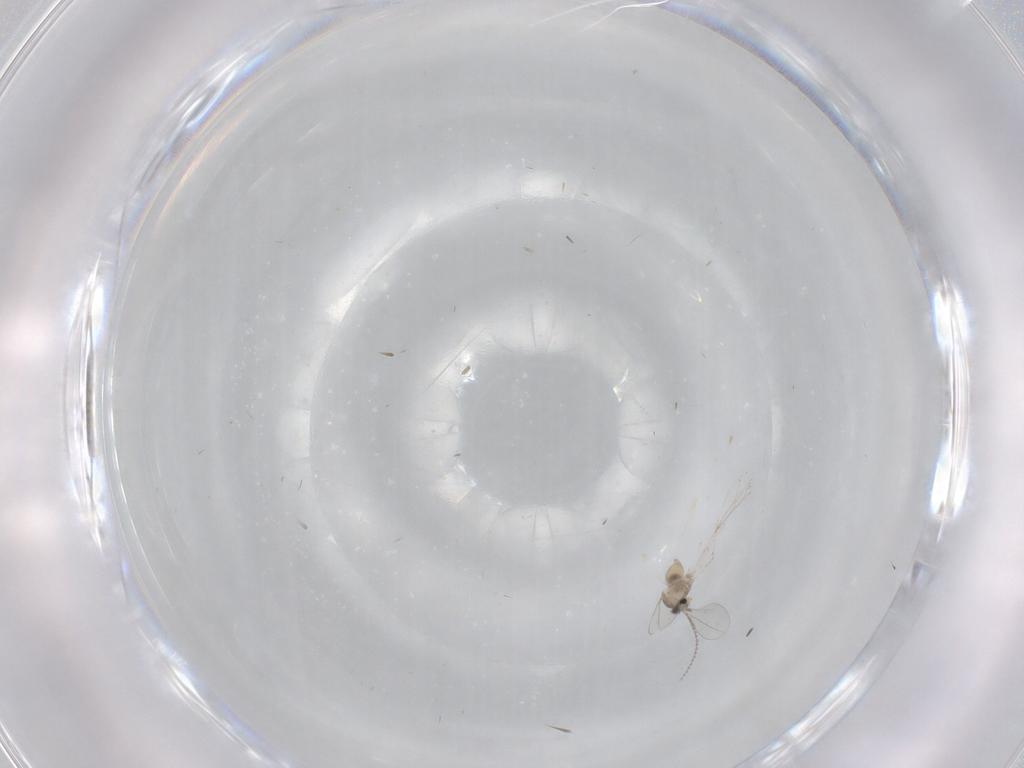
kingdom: Animalia
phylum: Arthropoda
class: Insecta
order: Diptera
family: Cecidomyiidae
